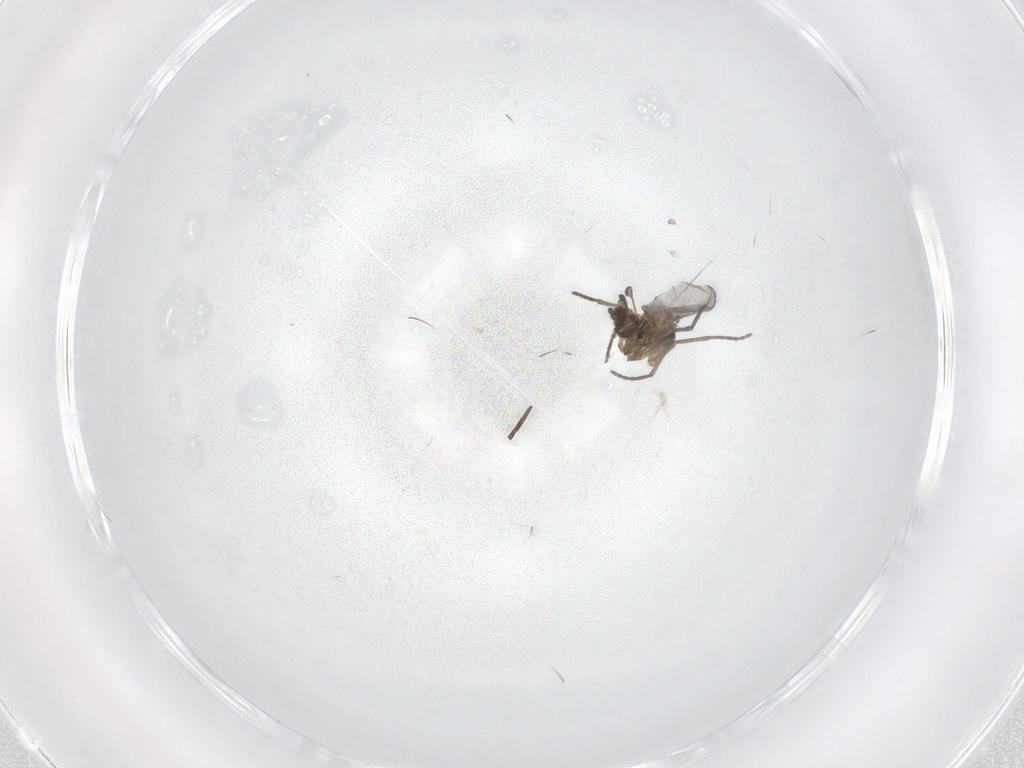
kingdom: Animalia
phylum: Arthropoda
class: Insecta
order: Diptera
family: Sciaridae
